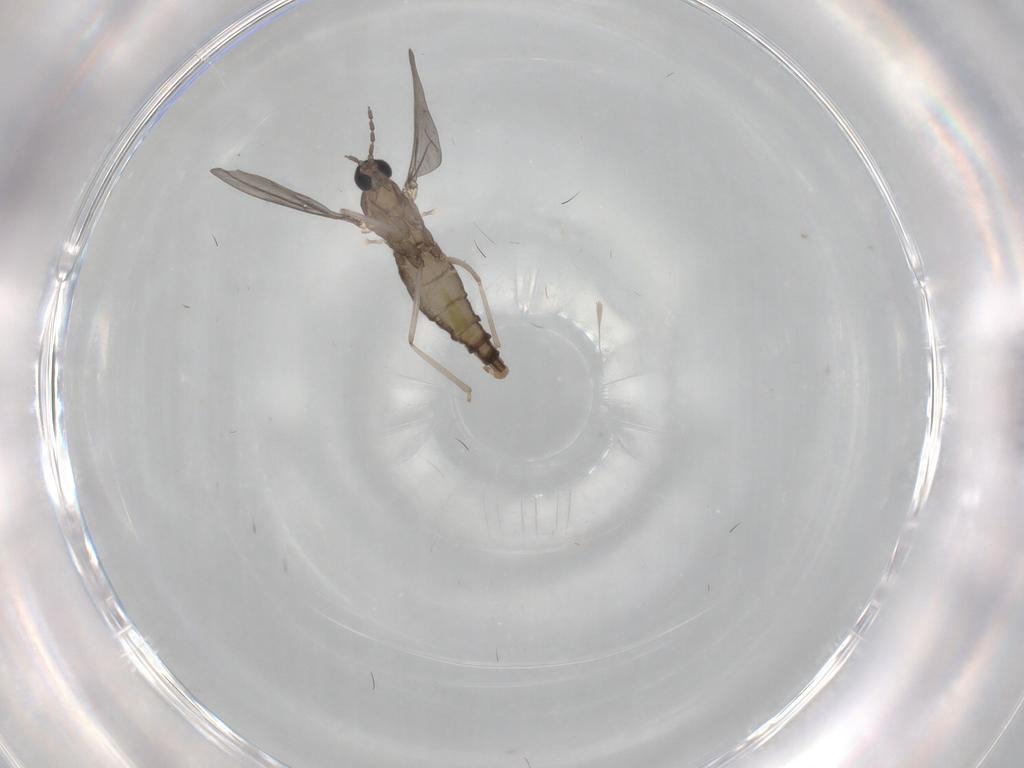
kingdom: Animalia
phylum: Arthropoda
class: Insecta
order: Diptera
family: Cecidomyiidae
